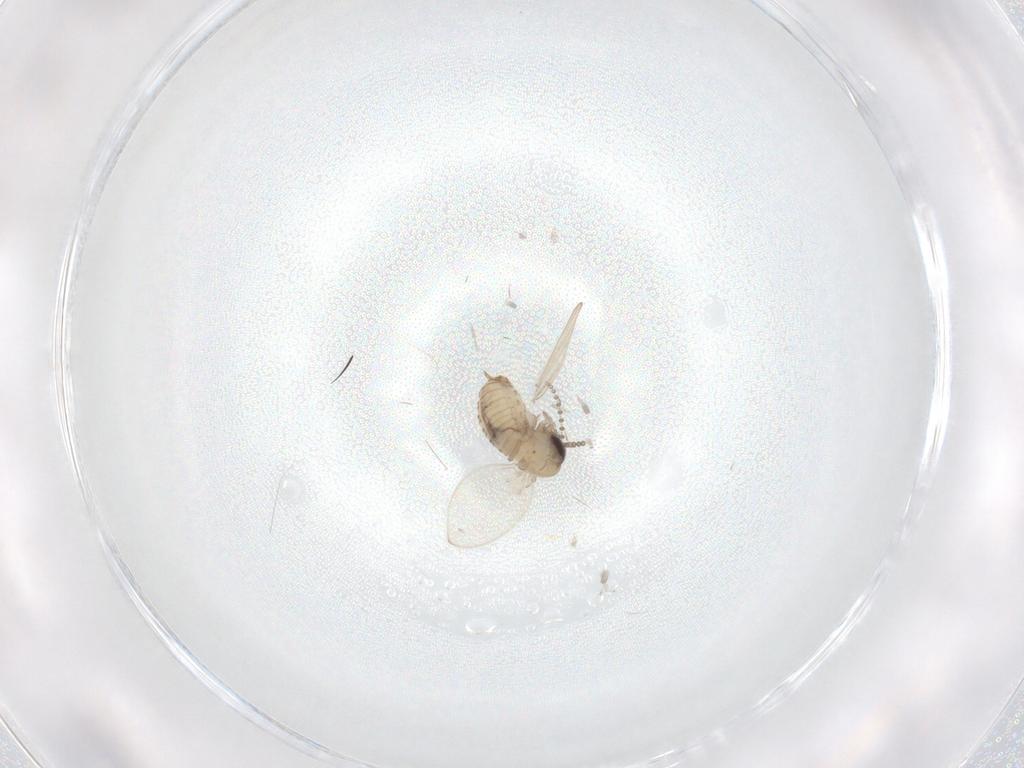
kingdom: Animalia
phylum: Arthropoda
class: Insecta
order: Diptera
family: Psychodidae
